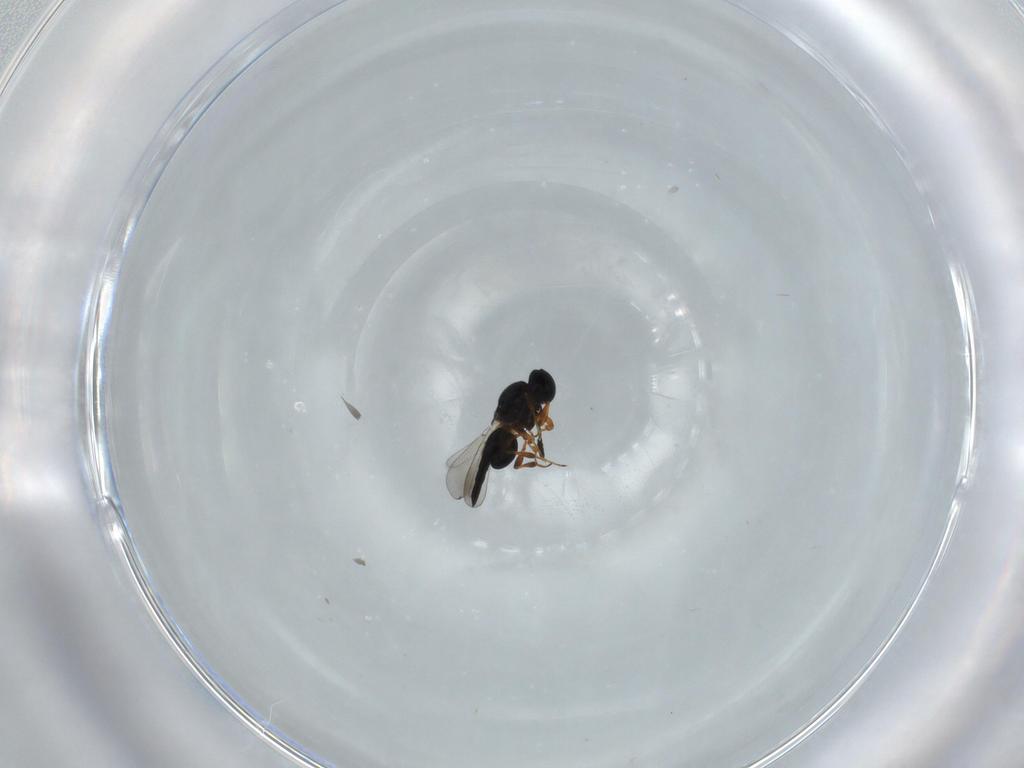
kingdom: Animalia
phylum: Arthropoda
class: Insecta
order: Hymenoptera
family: Platygastridae
